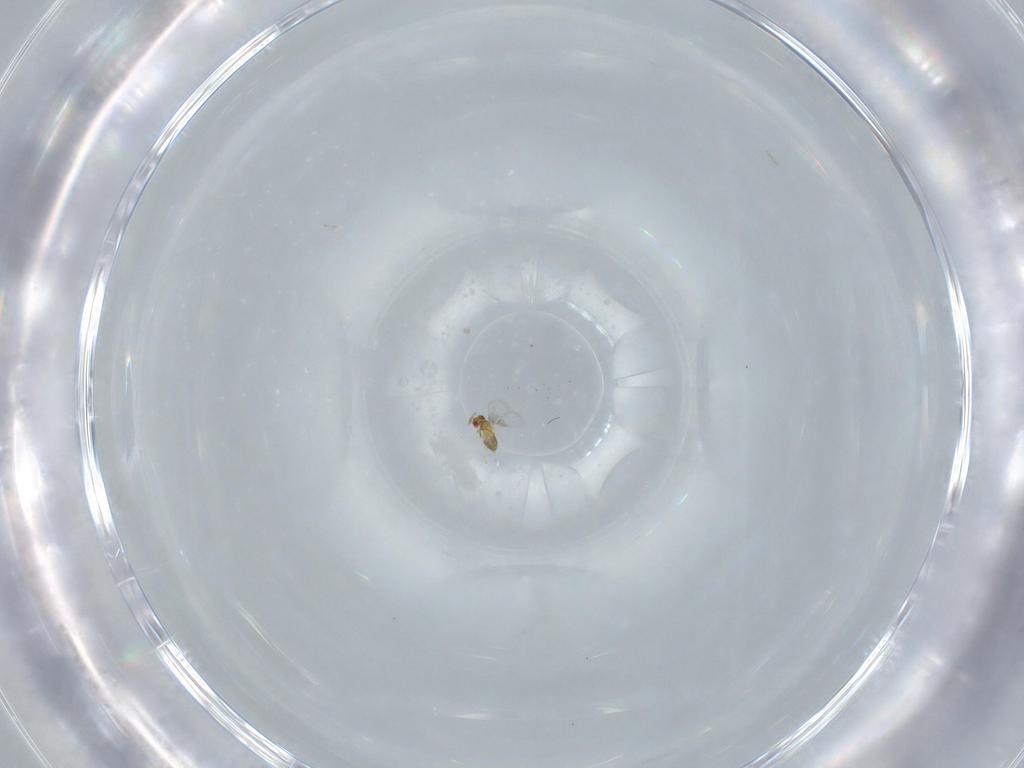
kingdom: Animalia
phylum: Arthropoda
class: Insecta
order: Hymenoptera
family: Trichogrammatidae
